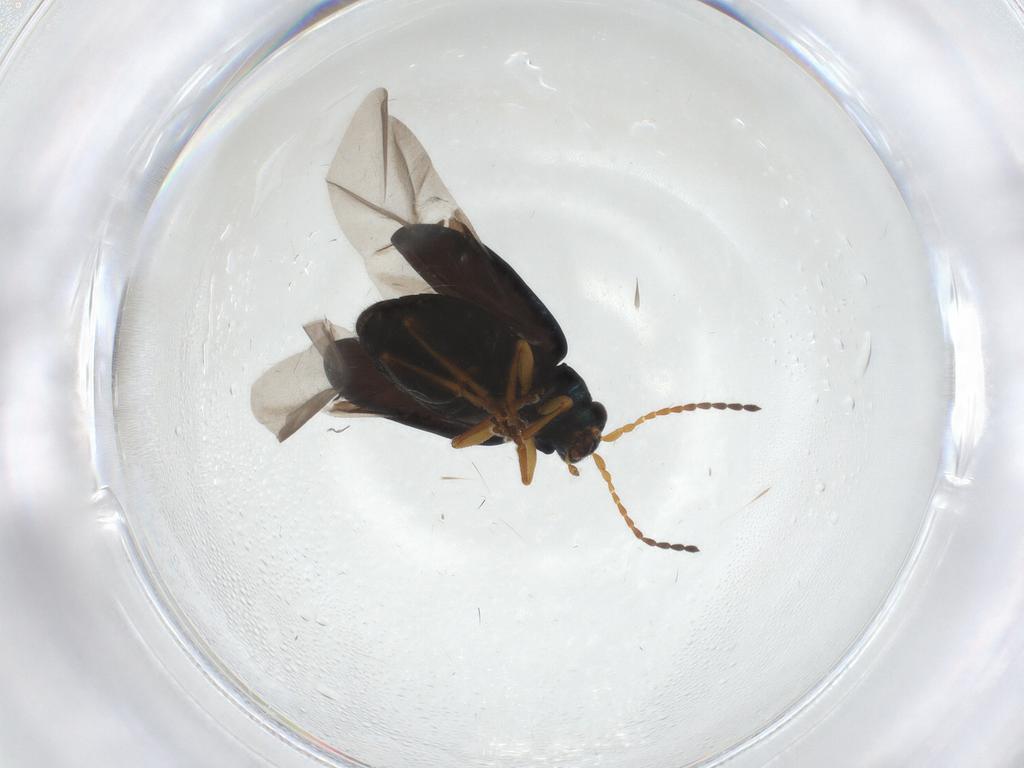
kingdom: Animalia
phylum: Arthropoda
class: Insecta
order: Coleoptera
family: Chrysomelidae
